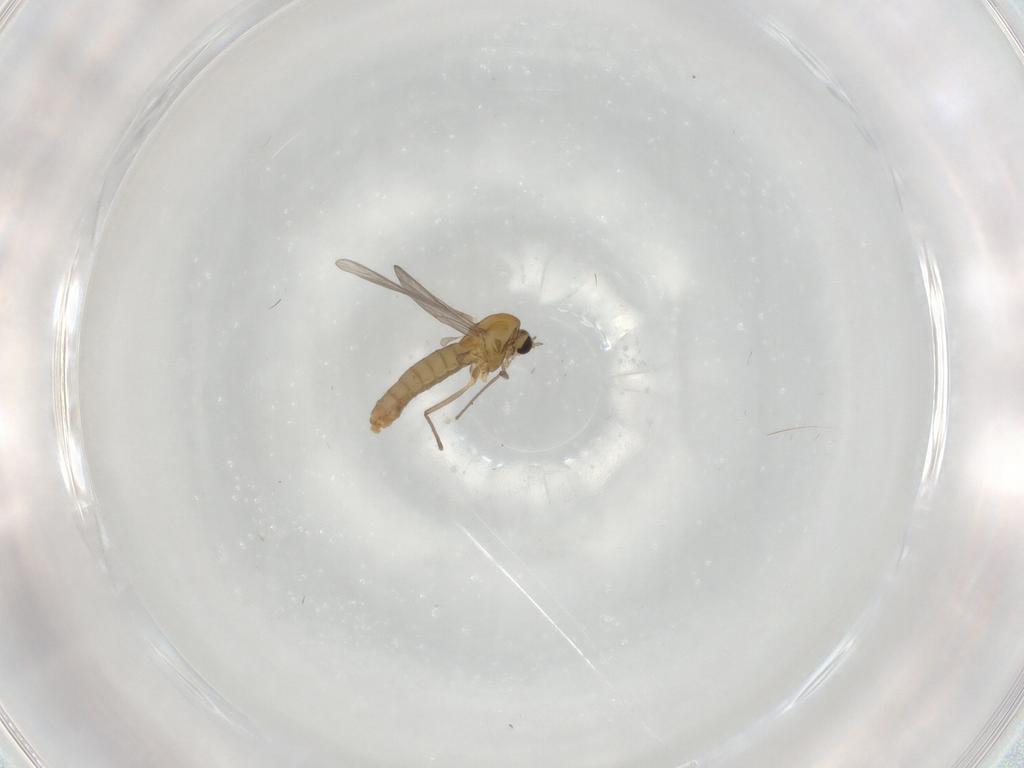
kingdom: Animalia
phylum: Arthropoda
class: Insecta
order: Diptera
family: Chironomidae
